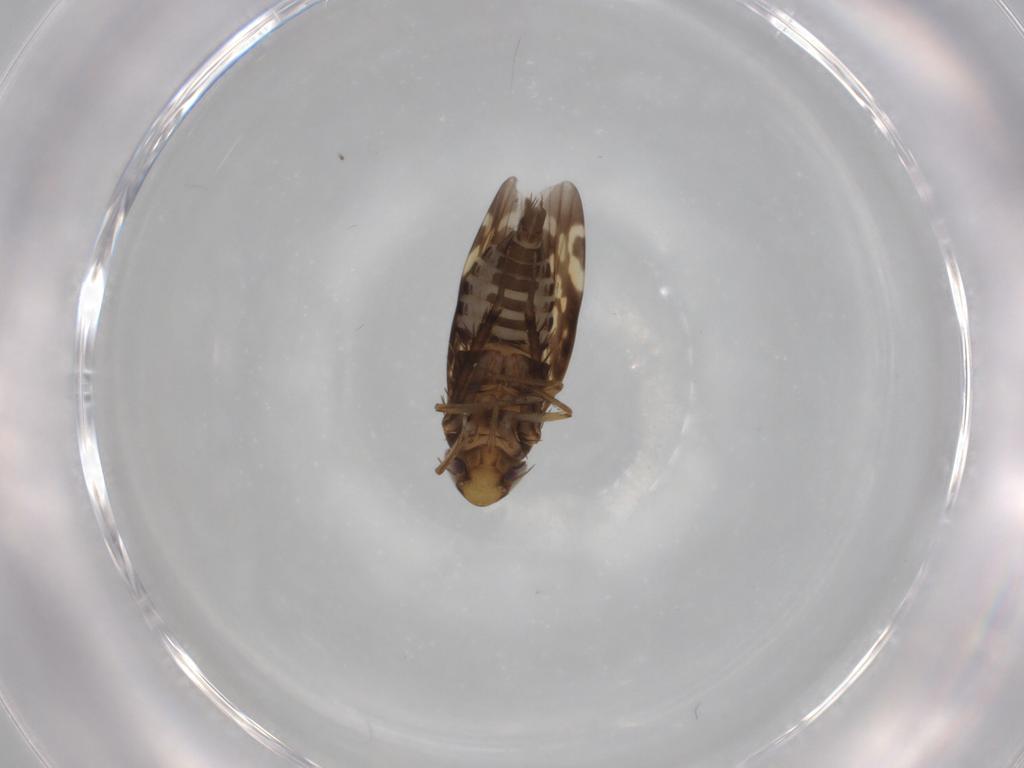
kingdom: Animalia
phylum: Arthropoda
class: Insecta
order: Hemiptera
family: Cicadellidae
